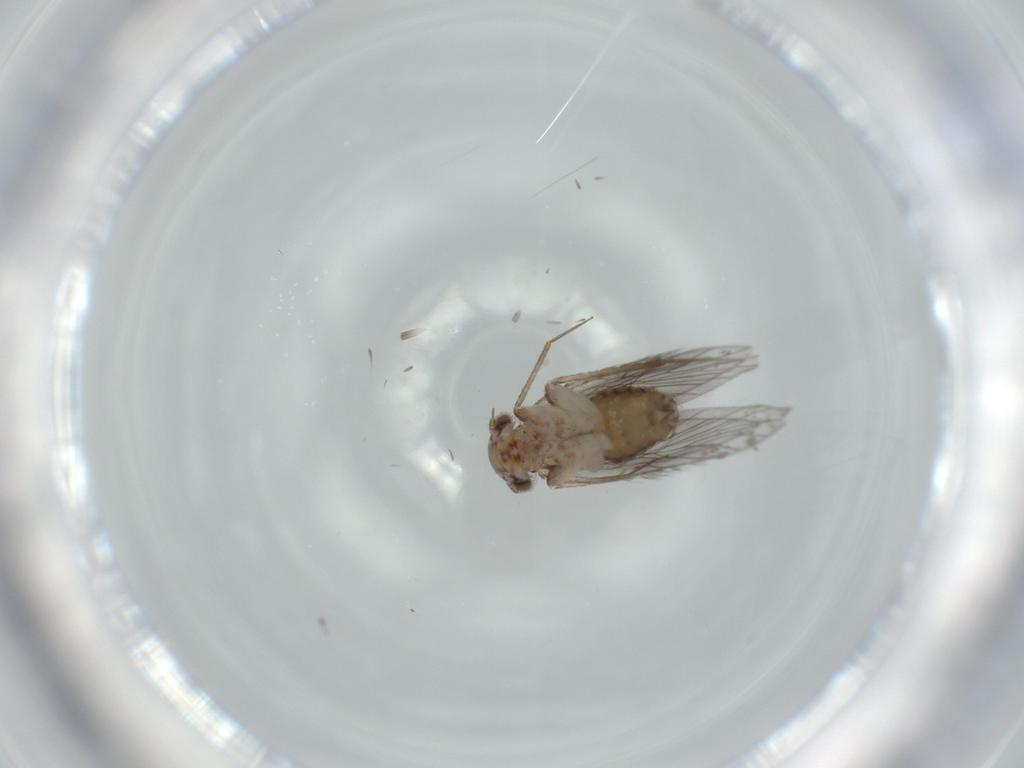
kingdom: Animalia
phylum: Arthropoda
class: Insecta
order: Psocodea
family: Lepidopsocidae
